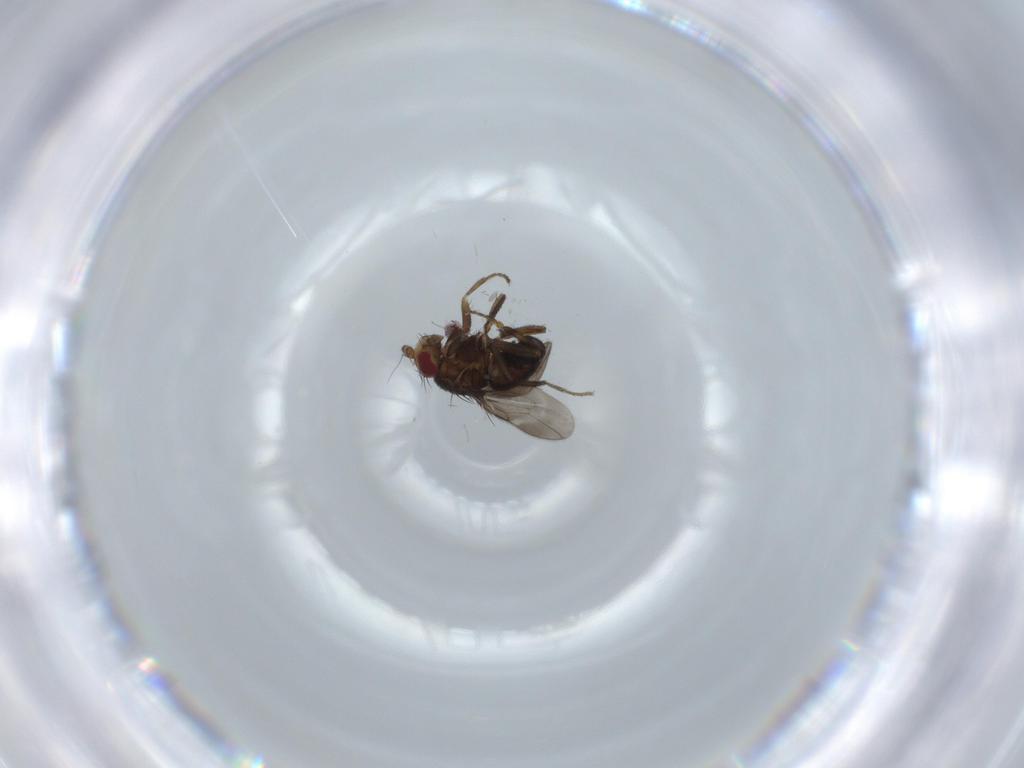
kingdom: Animalia
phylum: Arthropoda
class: Insecta
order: Diptera
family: Sphaeroceridae
